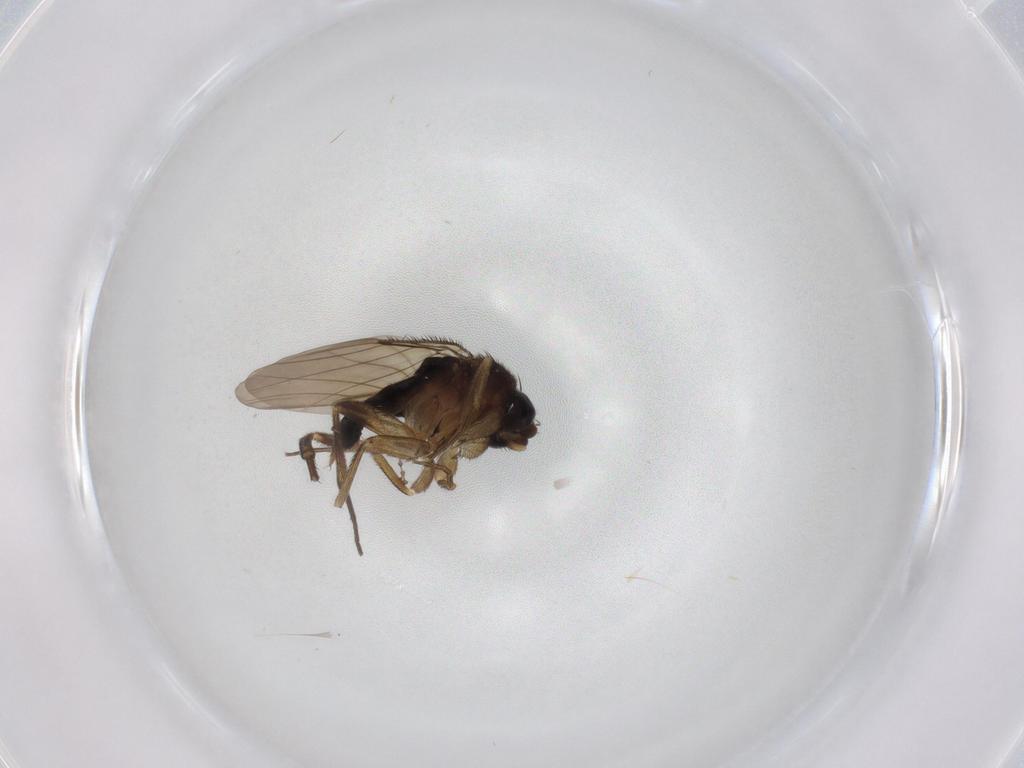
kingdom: Animalia
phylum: Arthropoda
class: Insecta
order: Diptera
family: Phoridae
